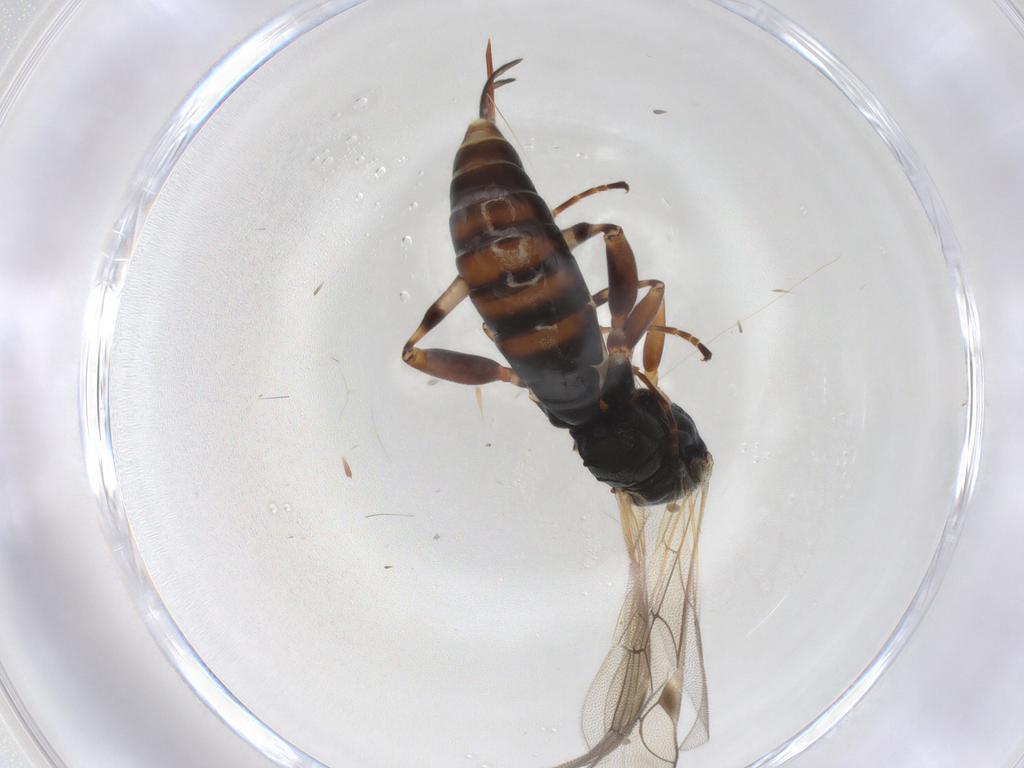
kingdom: Animalia
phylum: Arthropoda
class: Insecta
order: Hymenoptera
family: Ichneumonidae
